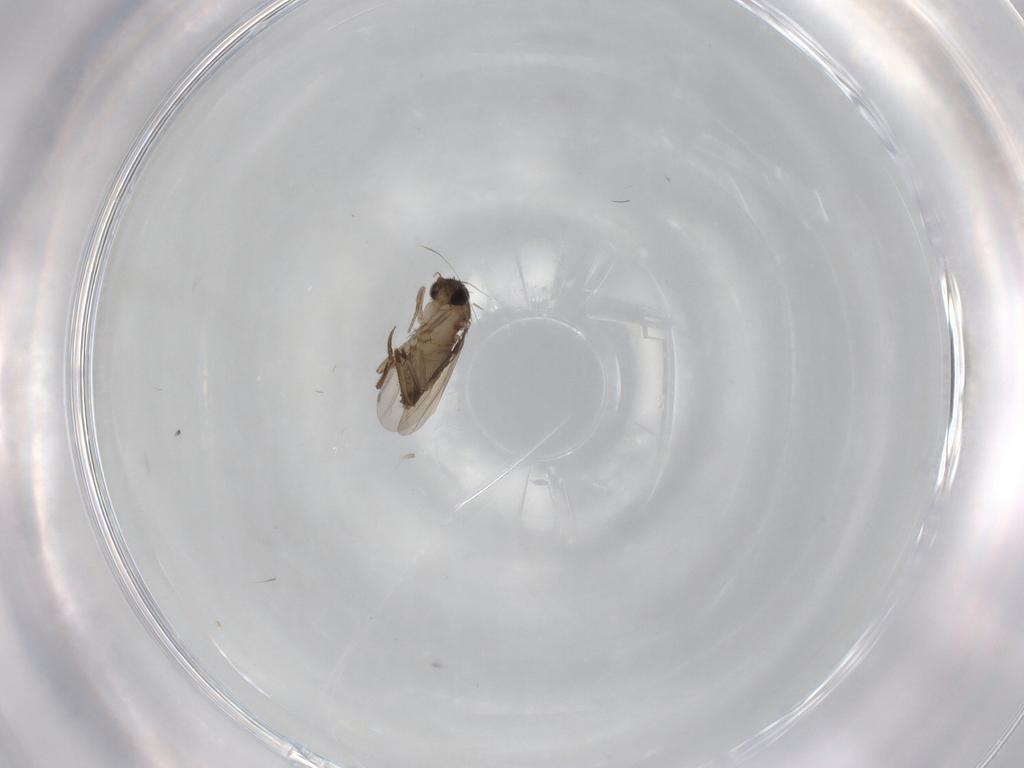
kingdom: Animalia
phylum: Arthropoda
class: Insecta
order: Diptera
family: Phoridae
